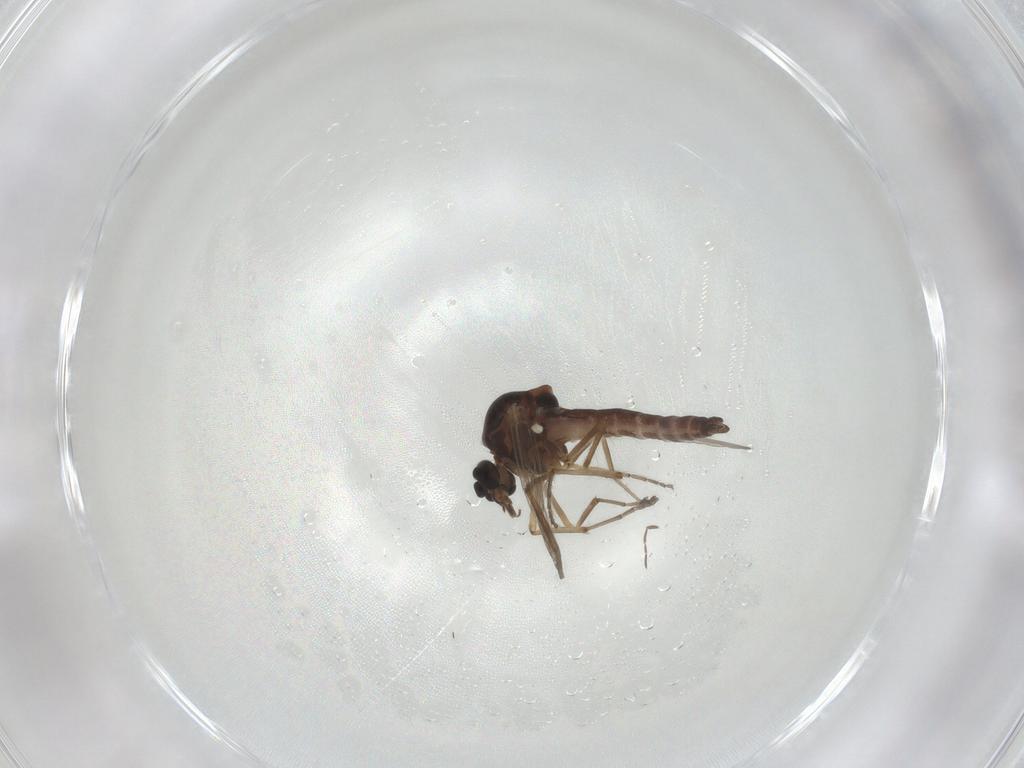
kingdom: Animalia
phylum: Arthropoda
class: Insecta
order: Diptera
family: Ceratopogonidae
